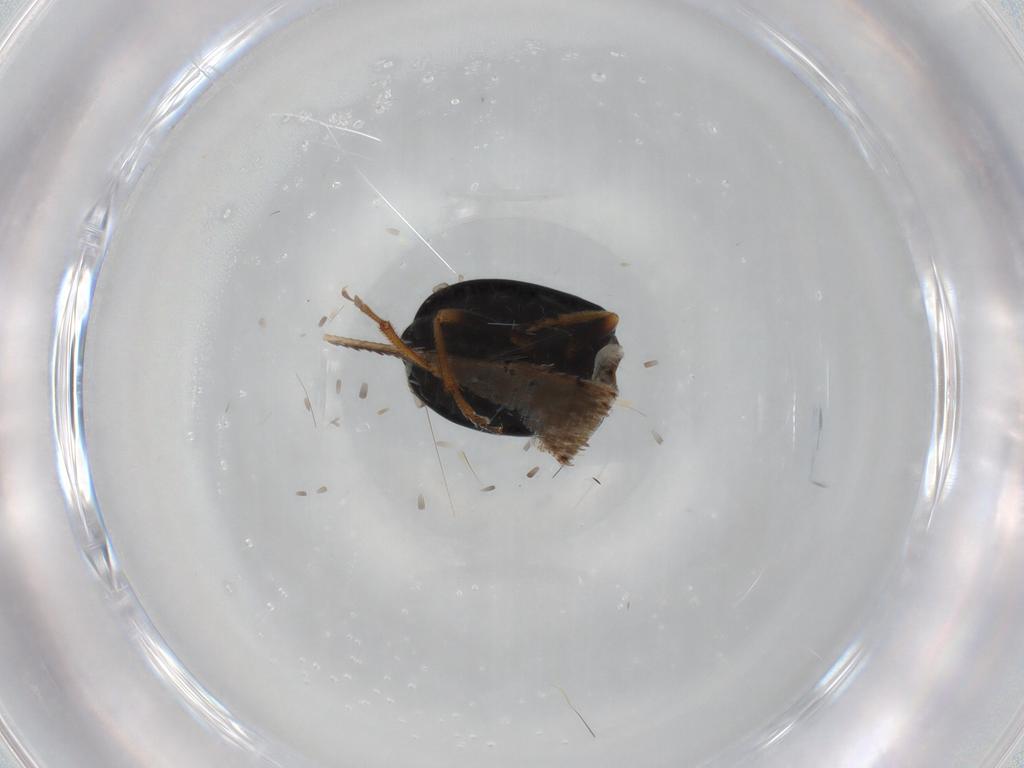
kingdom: Animalia
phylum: Arthropoda
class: Insecta
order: Coleoptera
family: Chrysomelidae
